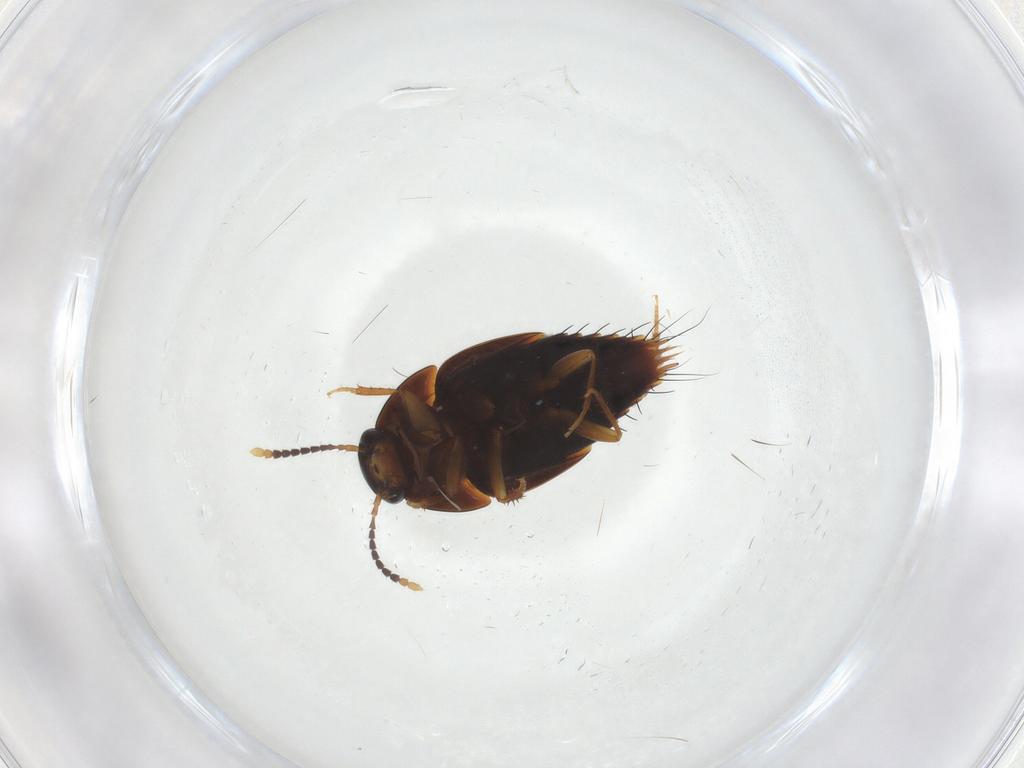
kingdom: Animalia
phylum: Arthropoda
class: Insecta
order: Coleoptera
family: Staphylinidae
